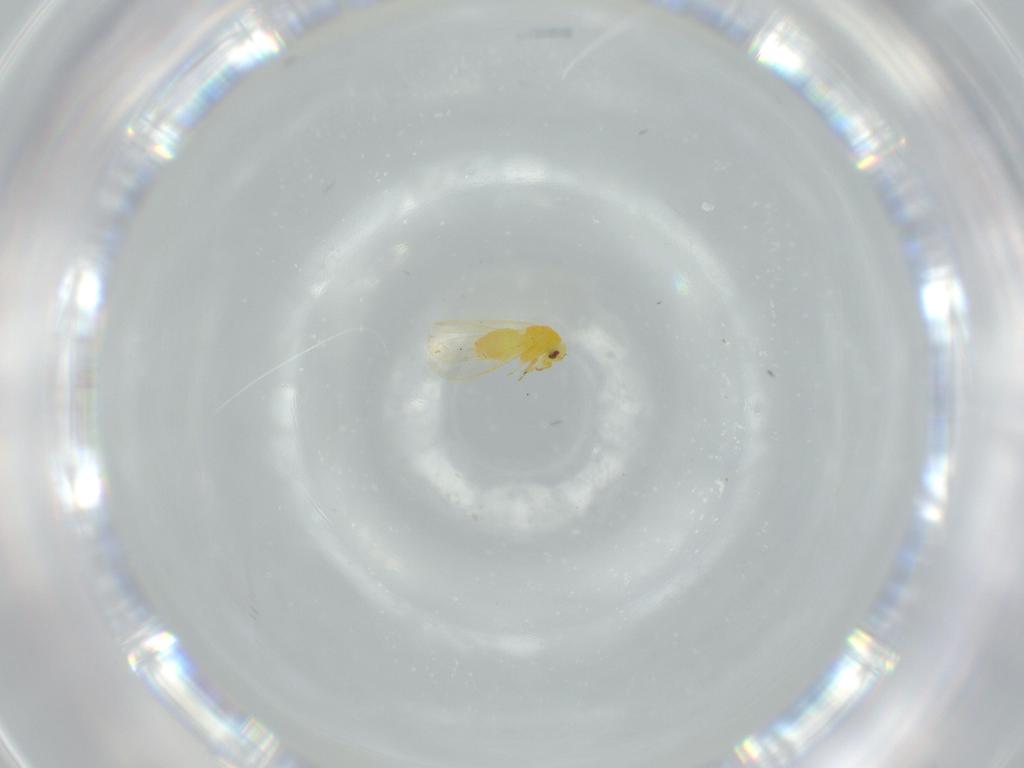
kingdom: Animalia
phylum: Arthropoda
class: Insecta
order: Hemiptera
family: Aleyrodidae
